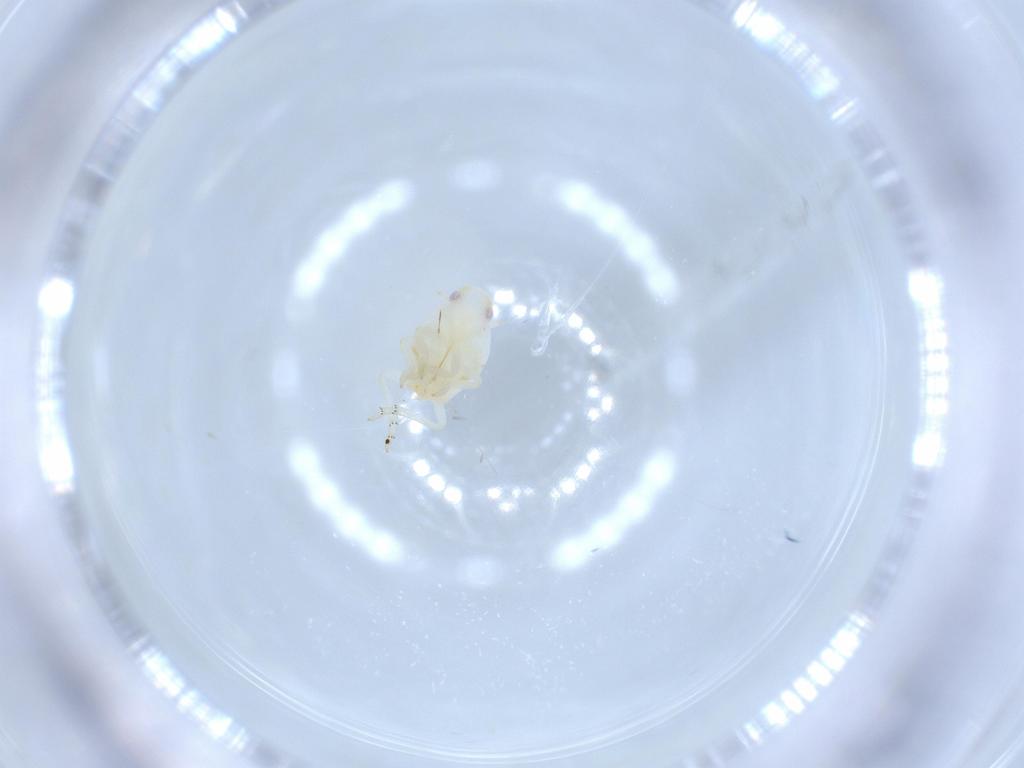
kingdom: Animalia
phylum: Arthropoda
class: Insecta
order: Hemiptera
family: Flatidae
